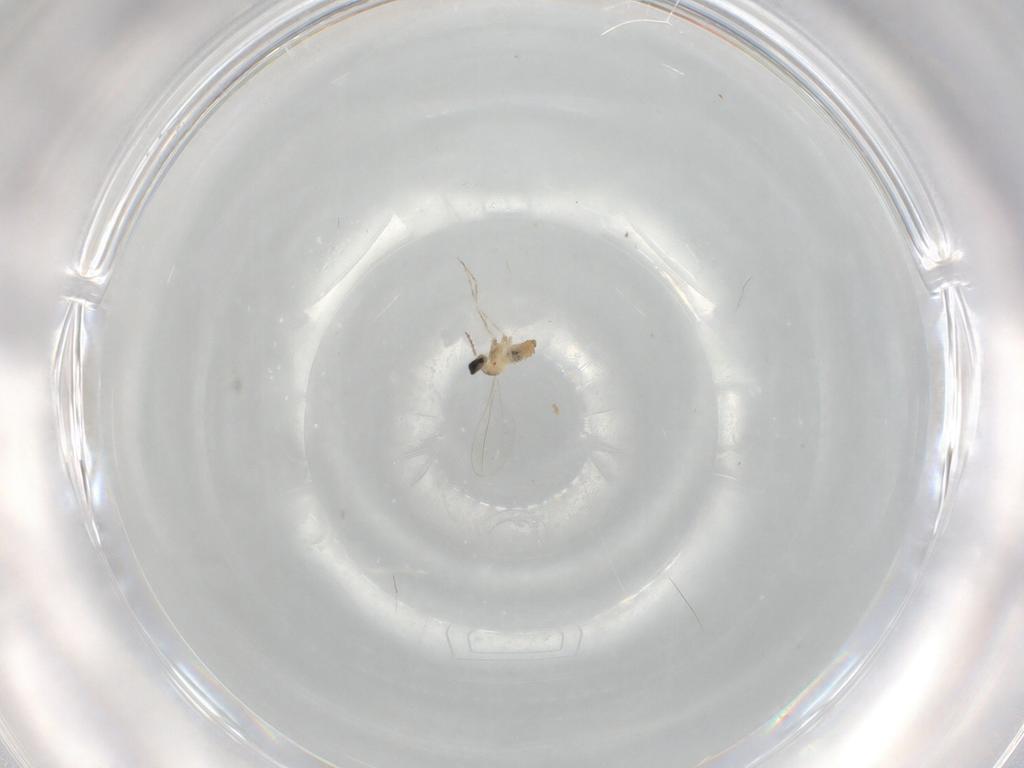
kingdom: Animalia
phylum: Arthropoda
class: Insecta
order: Diptera
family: Cecidomyiidae
